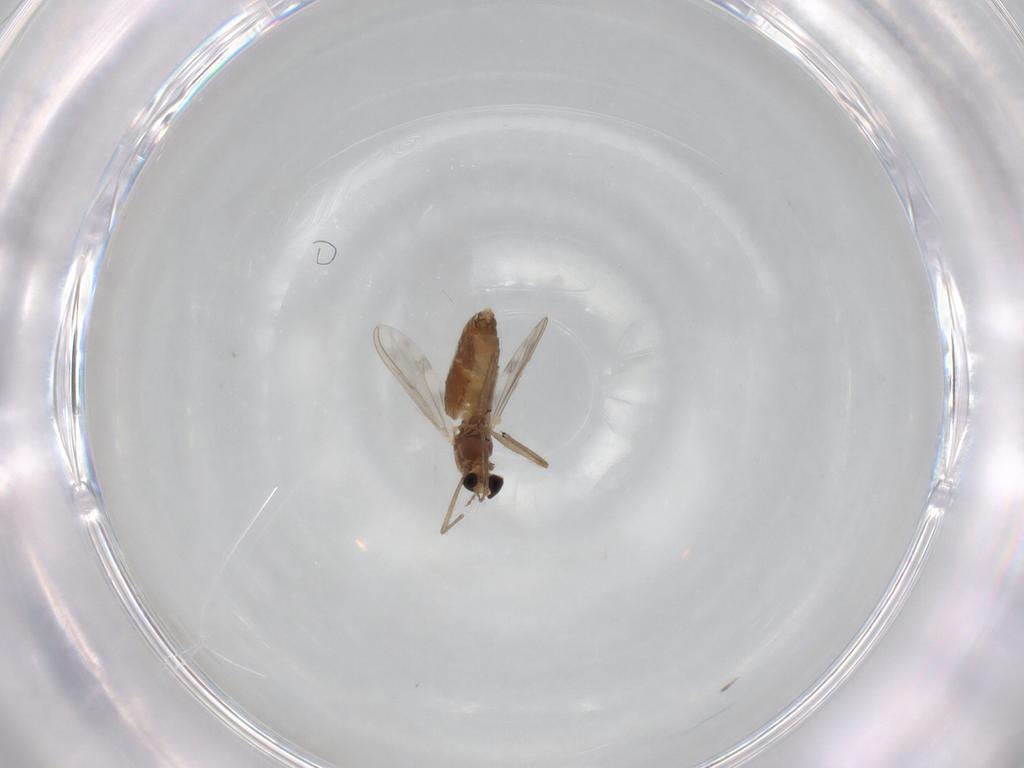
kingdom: Animalia
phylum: Arthropoda
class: Insecta
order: Diptera
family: Chironomidae
